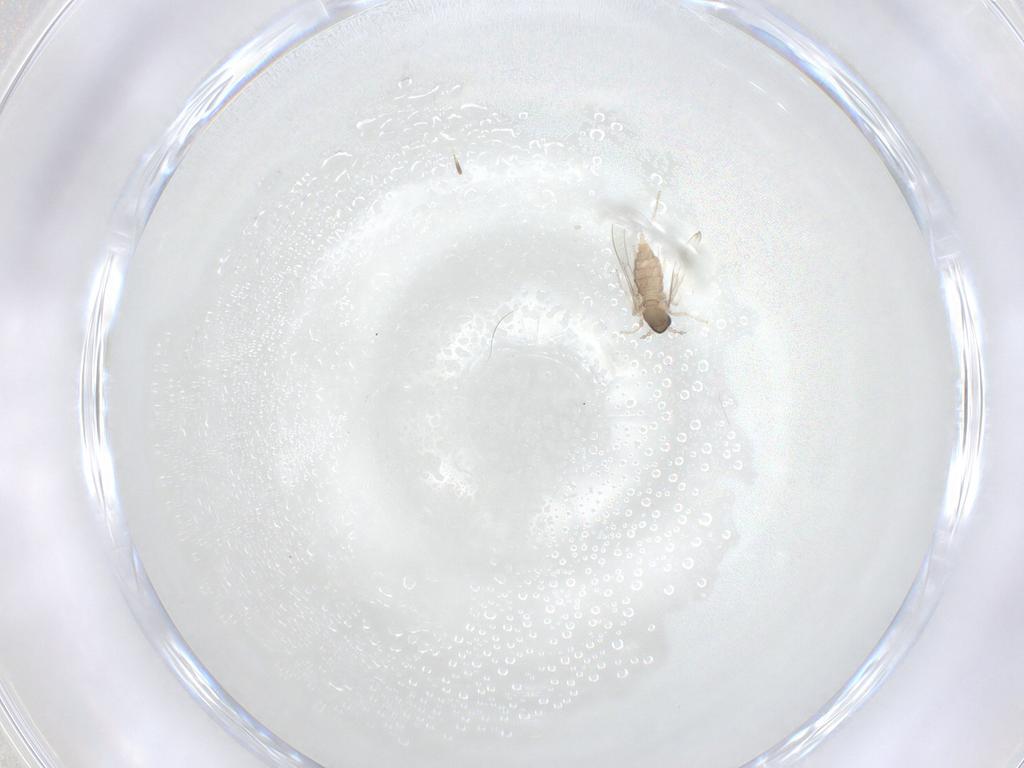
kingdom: Animalia
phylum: Arthropoda
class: Insecta
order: Diptera
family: Cecidomyiidae
